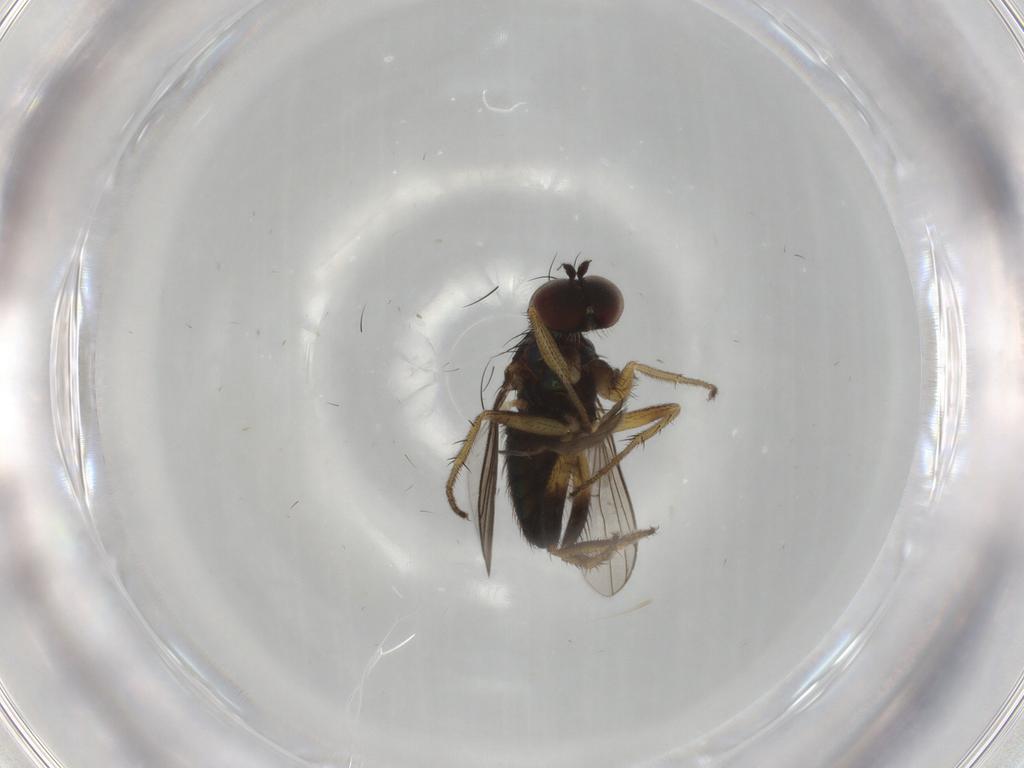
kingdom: Animalia
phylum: Arthropoda
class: Insecta
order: Diptera
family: Dolichopodidae
